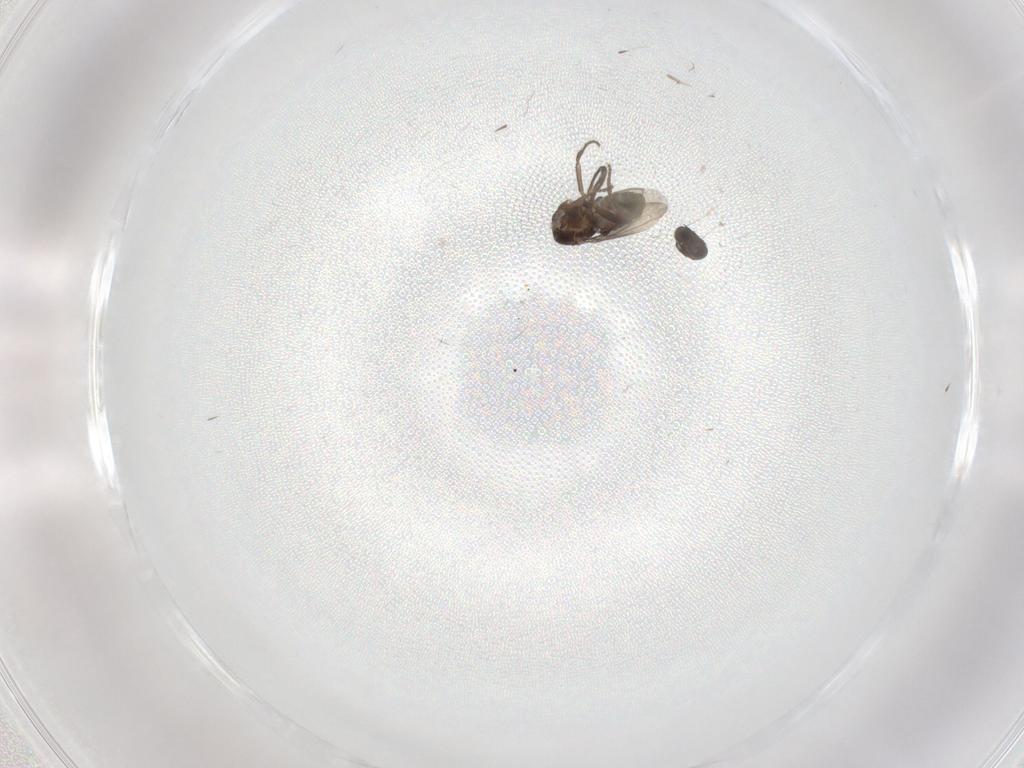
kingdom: Animalia
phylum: Arthropoda
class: Insecta
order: Diptera
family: Sphaeroceridae
